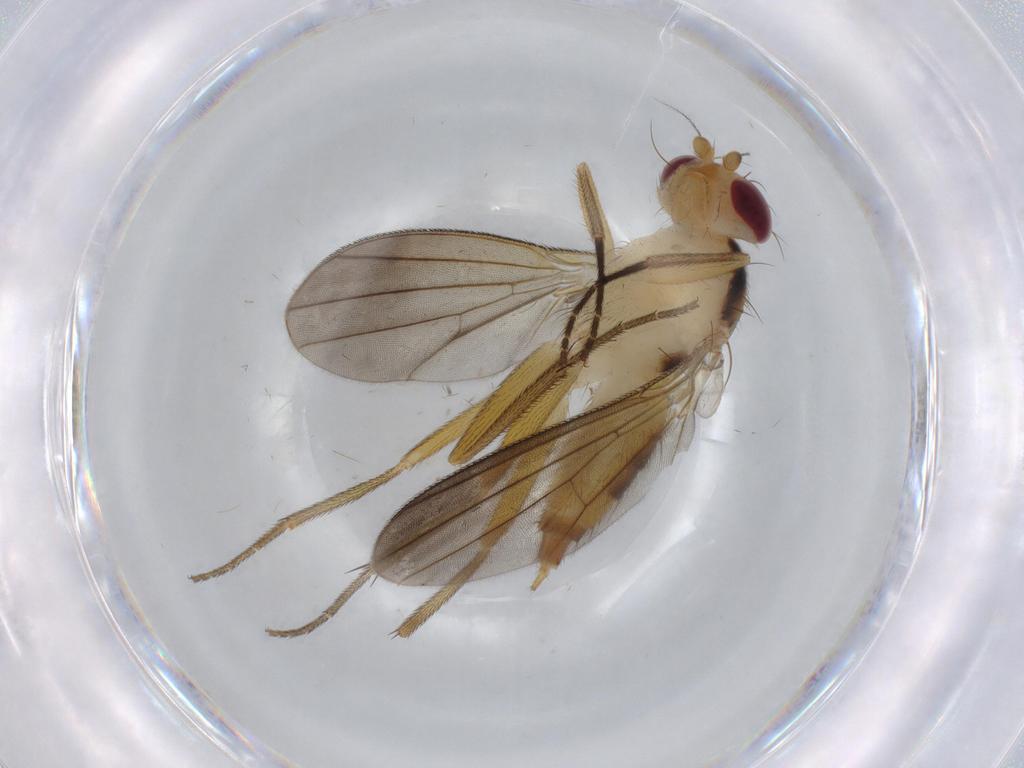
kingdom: Animalia
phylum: Arthropoda
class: Insecta
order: Diptera
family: Clusiidae
